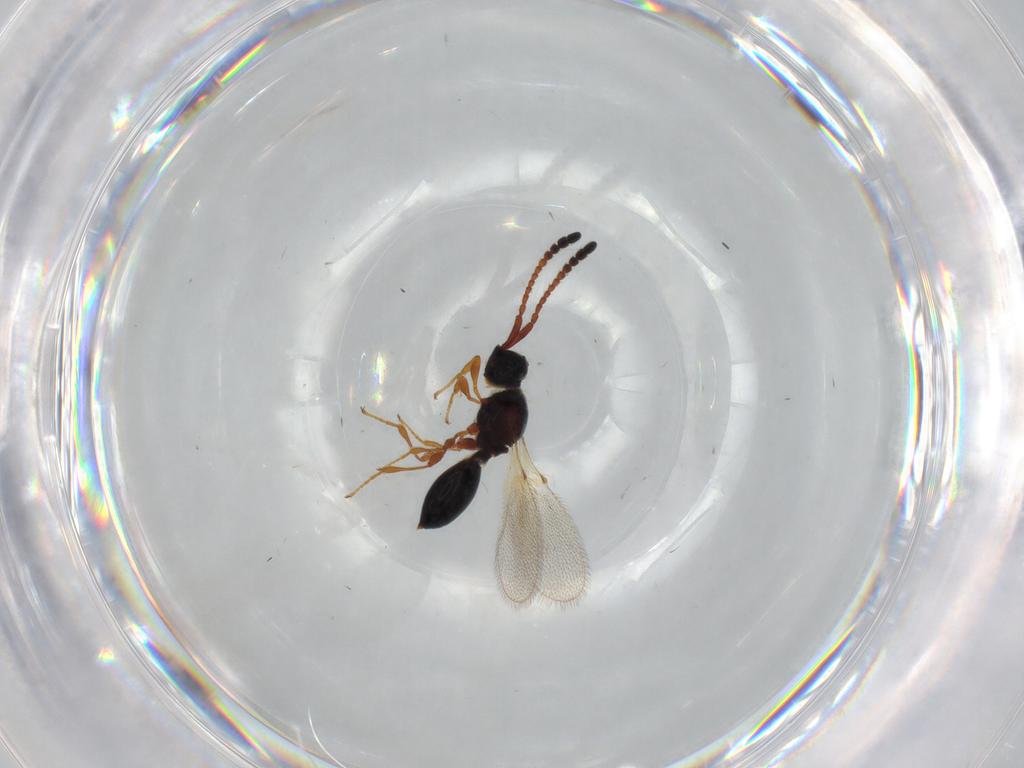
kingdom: Animalia
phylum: Arthropoda
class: Insecta
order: Hymenoptera
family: Diapriidae
